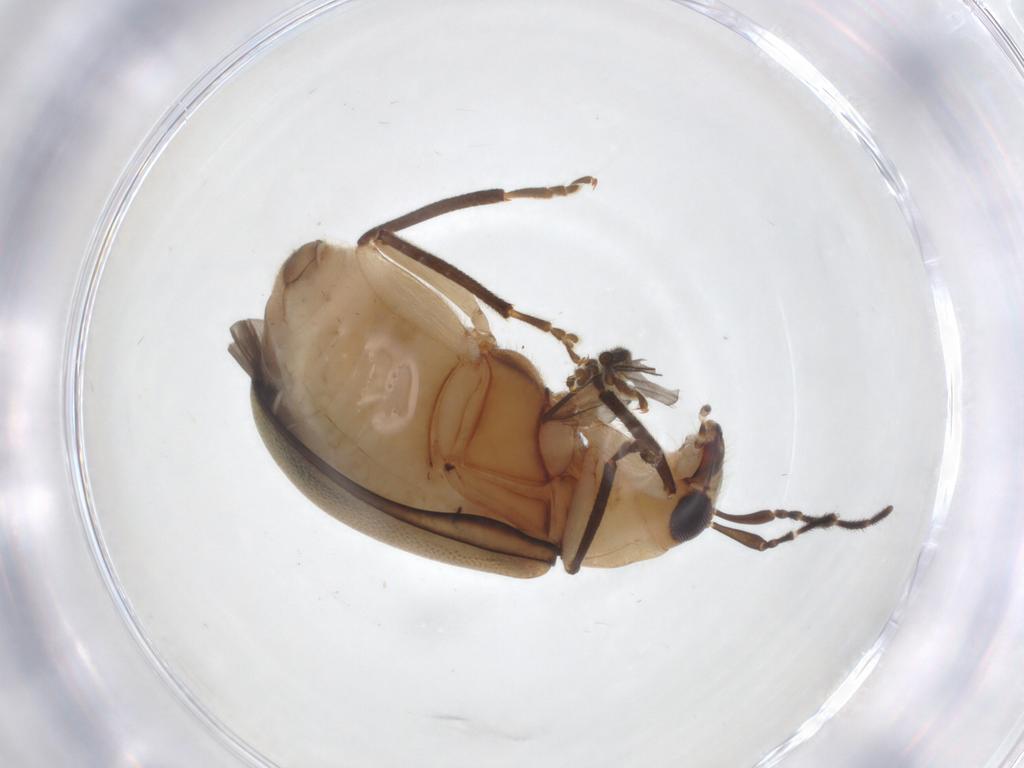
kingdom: Animalia
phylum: Arthropoda
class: Insecta
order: Coleoptera
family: Chrysomelidae
